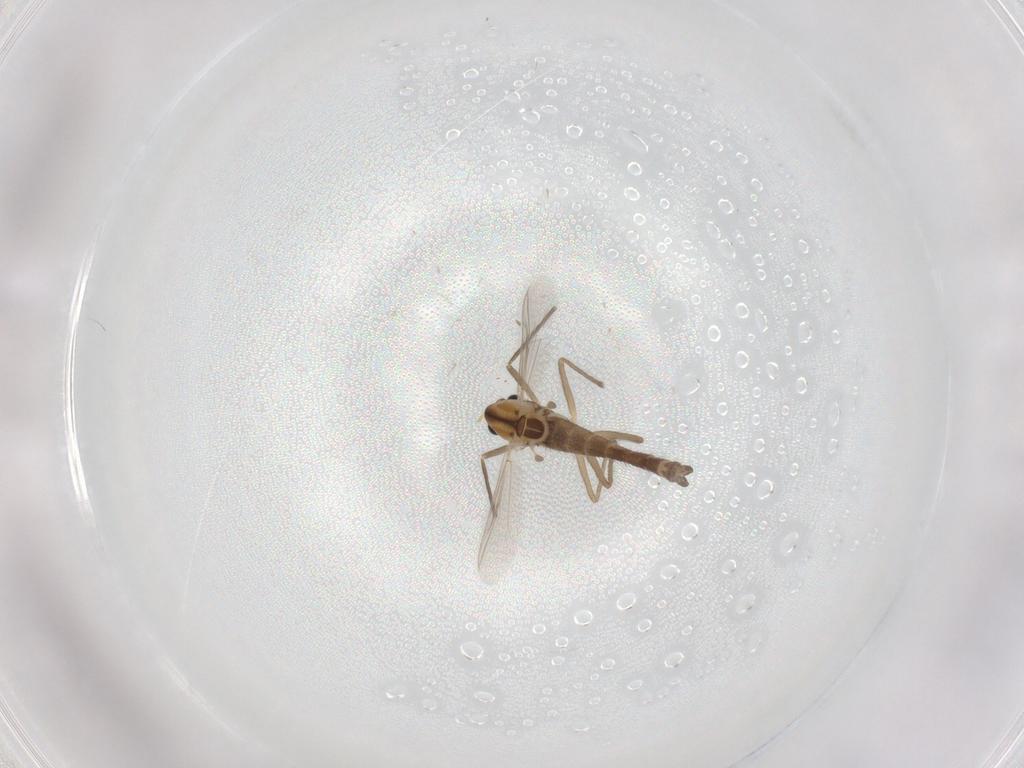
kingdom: Animalia
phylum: Arthropoda
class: Insecta
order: Diptera
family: Chironomidae
